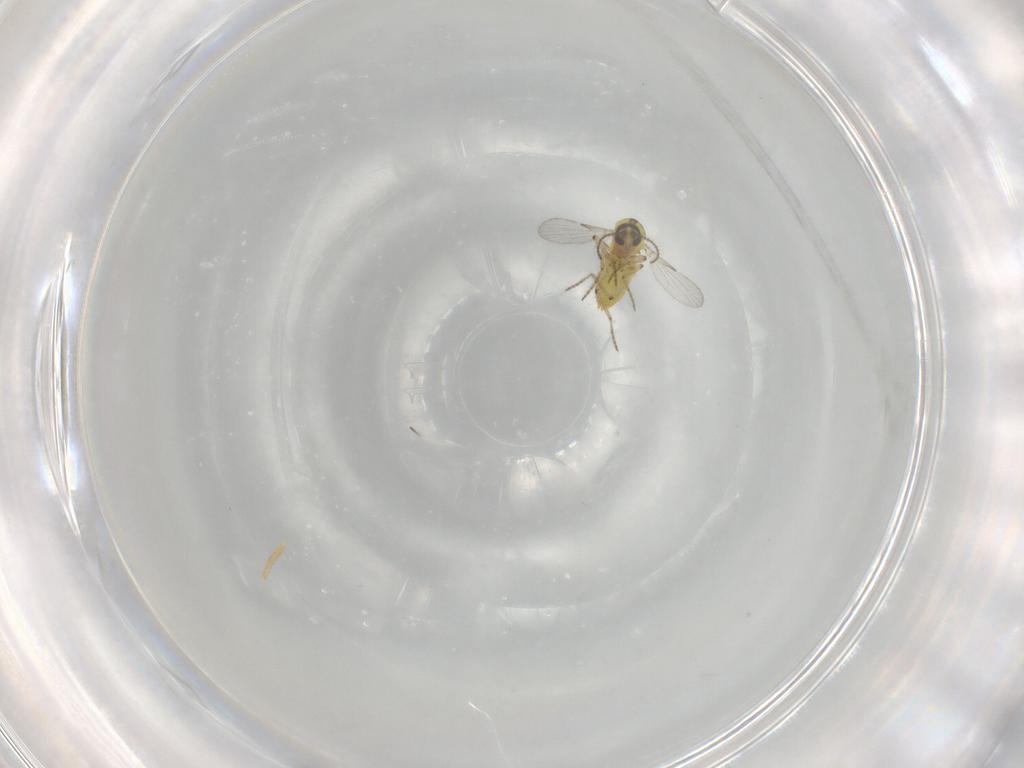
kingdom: Animalia
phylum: Arthropoda
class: Insecta
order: Diptera
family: Ceratopogonidae
